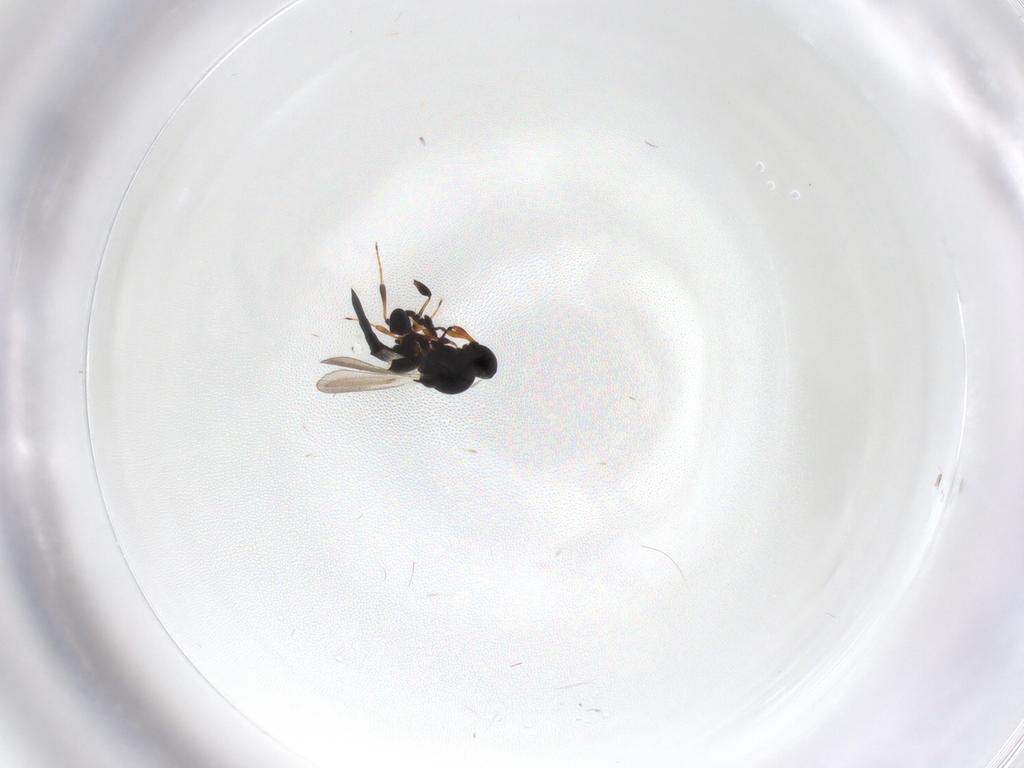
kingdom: Animalia
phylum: Arthropoda
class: Insecta
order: Hymenoptera
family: Platygastridae
